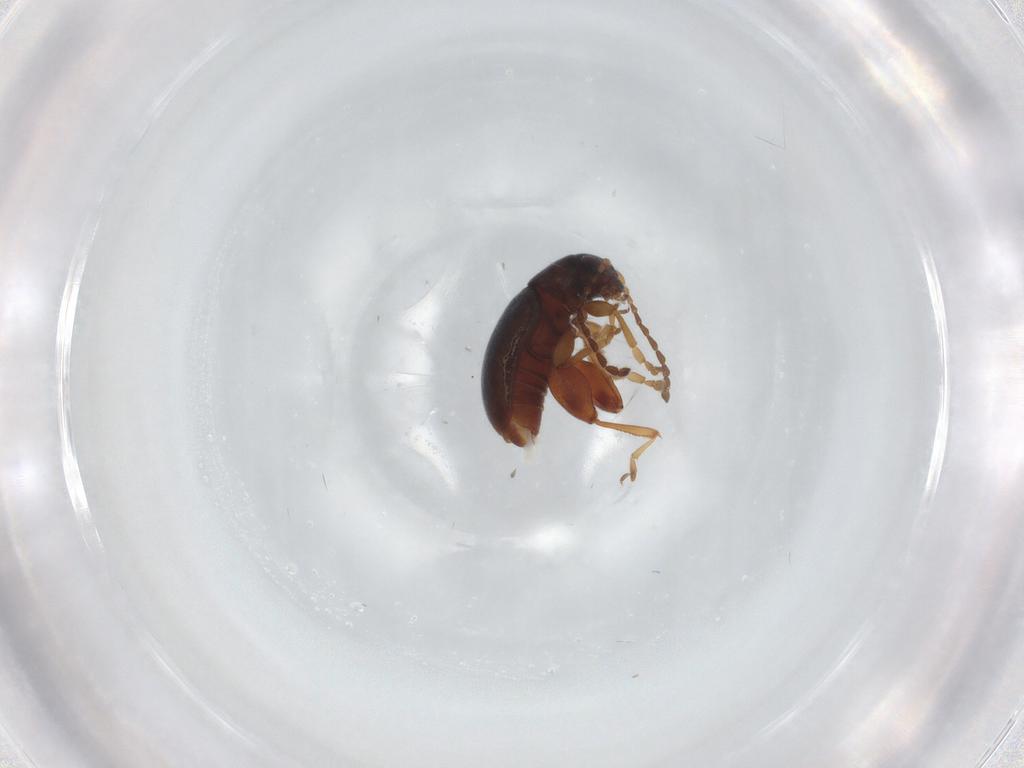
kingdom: Animalia
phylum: Arthropoda
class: Insecta
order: Coleoptera
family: Chrysomelidae
